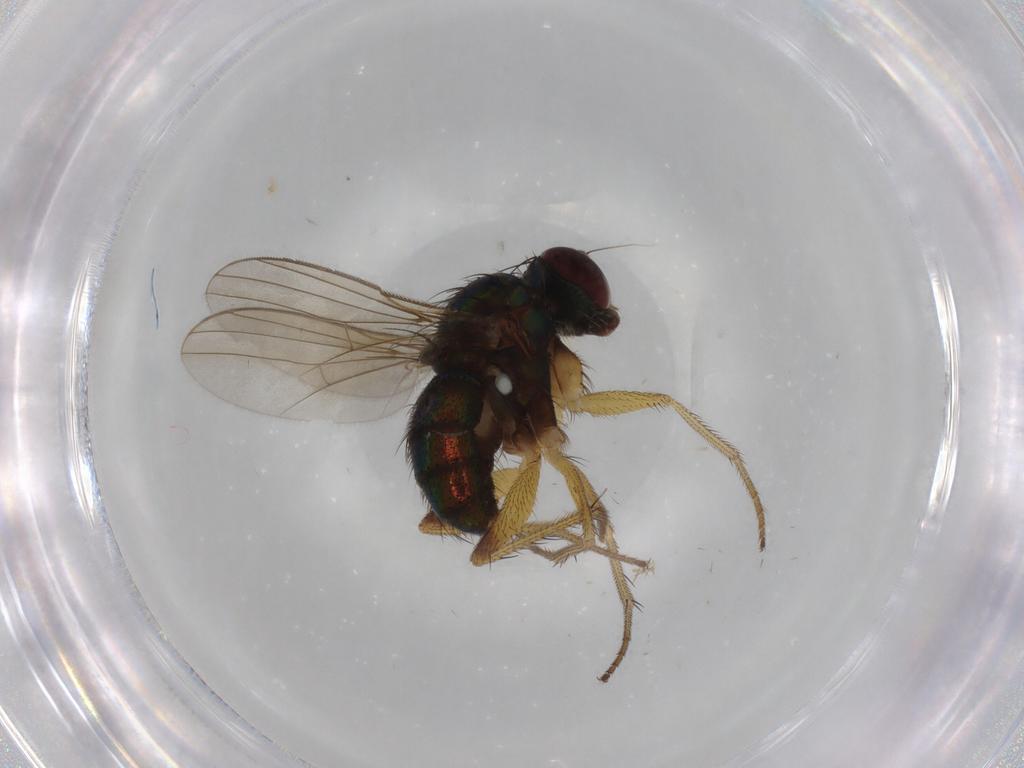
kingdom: Animalia
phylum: Arthropoda
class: Insecta
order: Diptera
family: Dolichopodidae
